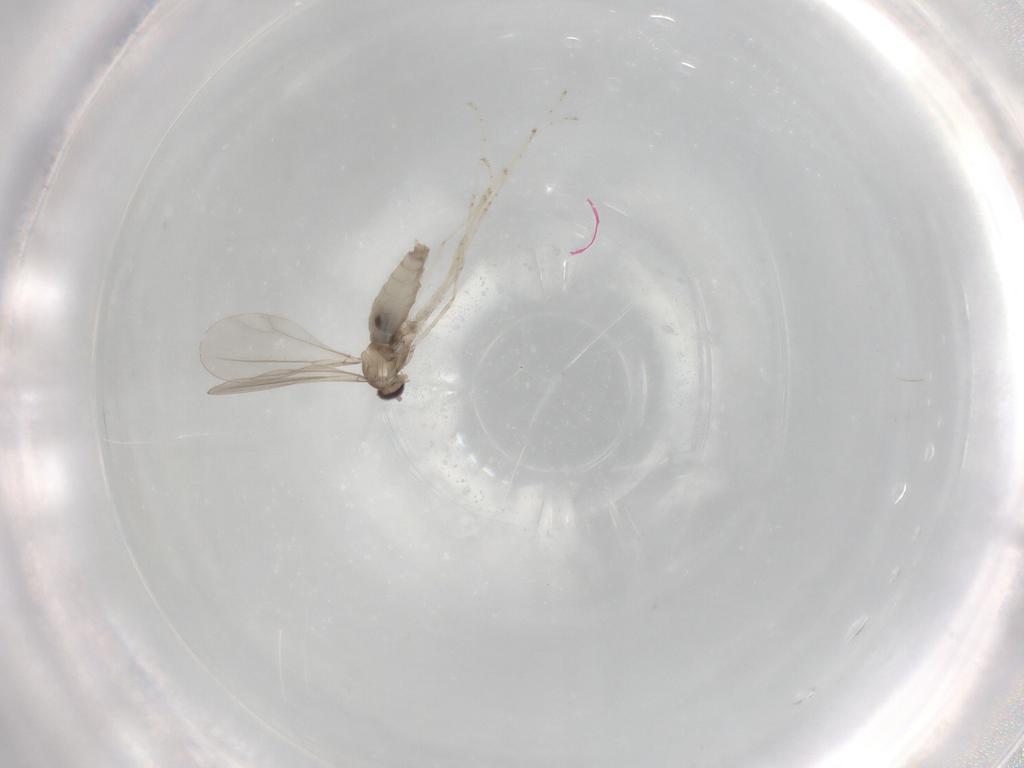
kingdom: Animalia
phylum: Arthropoda
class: Insecta
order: Diptera
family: Cecidomyiidae
